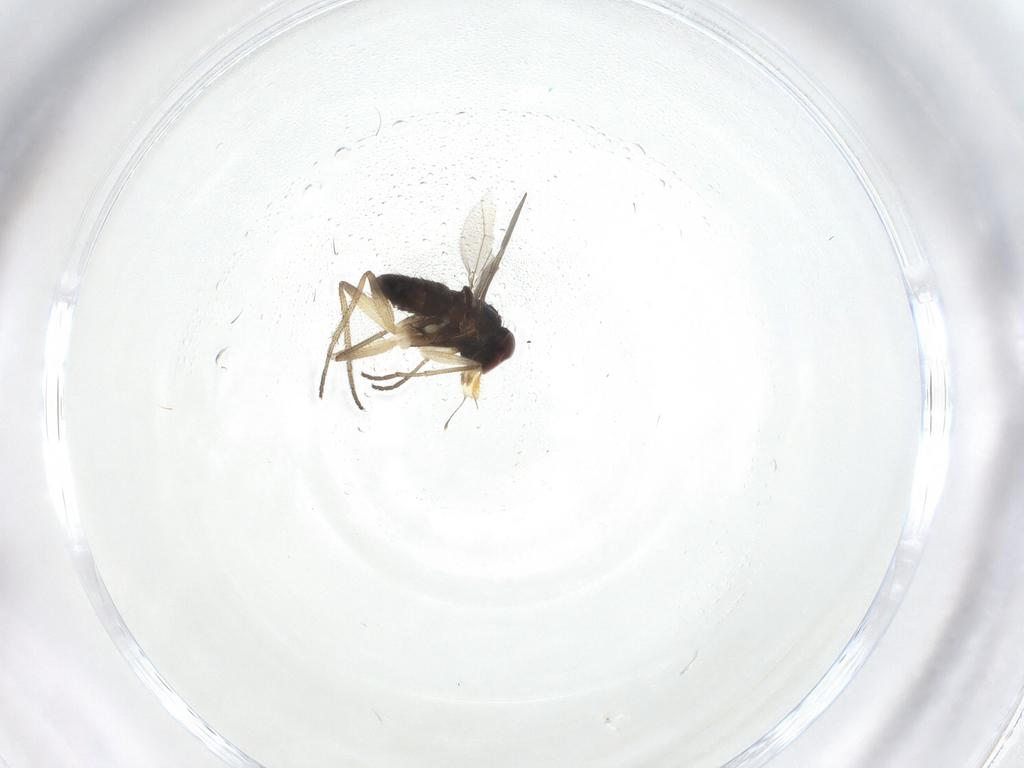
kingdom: Animalia
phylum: Arthropoda
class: Insecta
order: Diptera
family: Dolichopodidae
